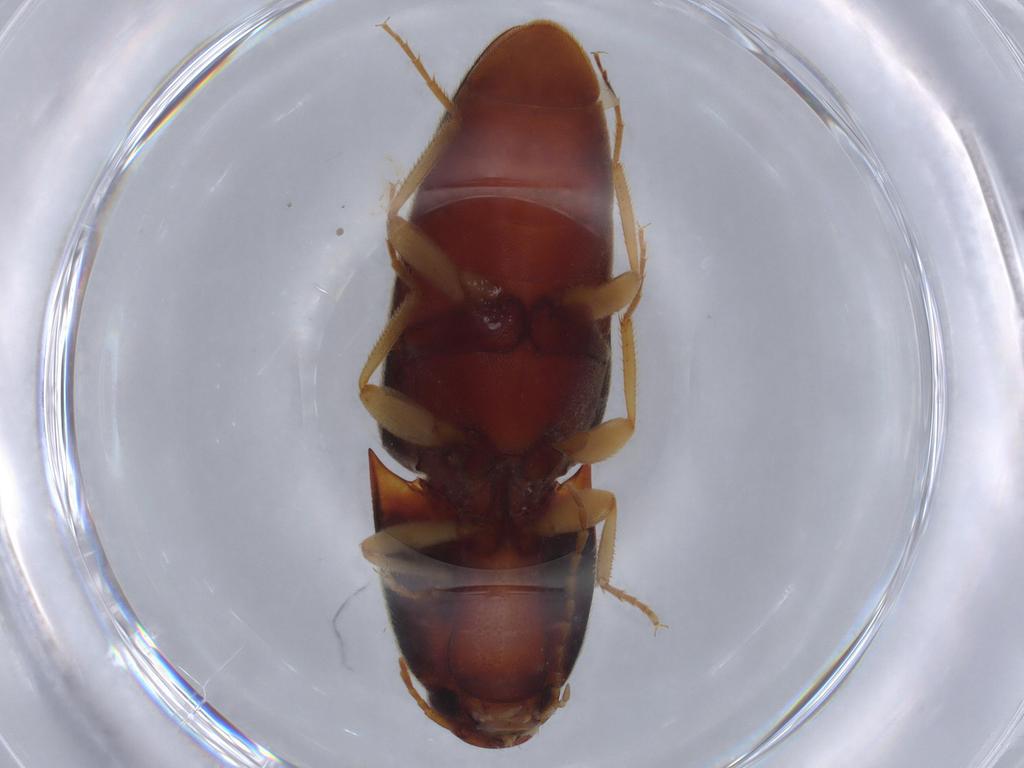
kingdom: Animalia
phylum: Arthropoda
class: Insecta
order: Coleoptera
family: Elateridae
